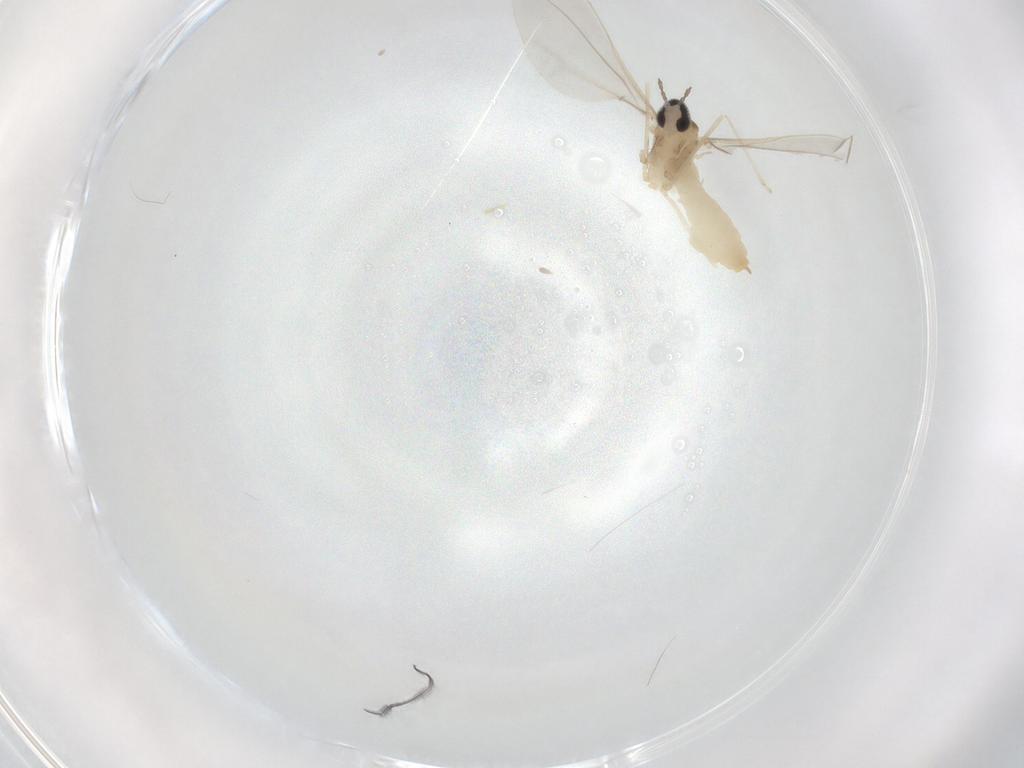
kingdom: Animalia
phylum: Arthropoda
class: Insecta
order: Diptera
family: Cecidomyiidae
